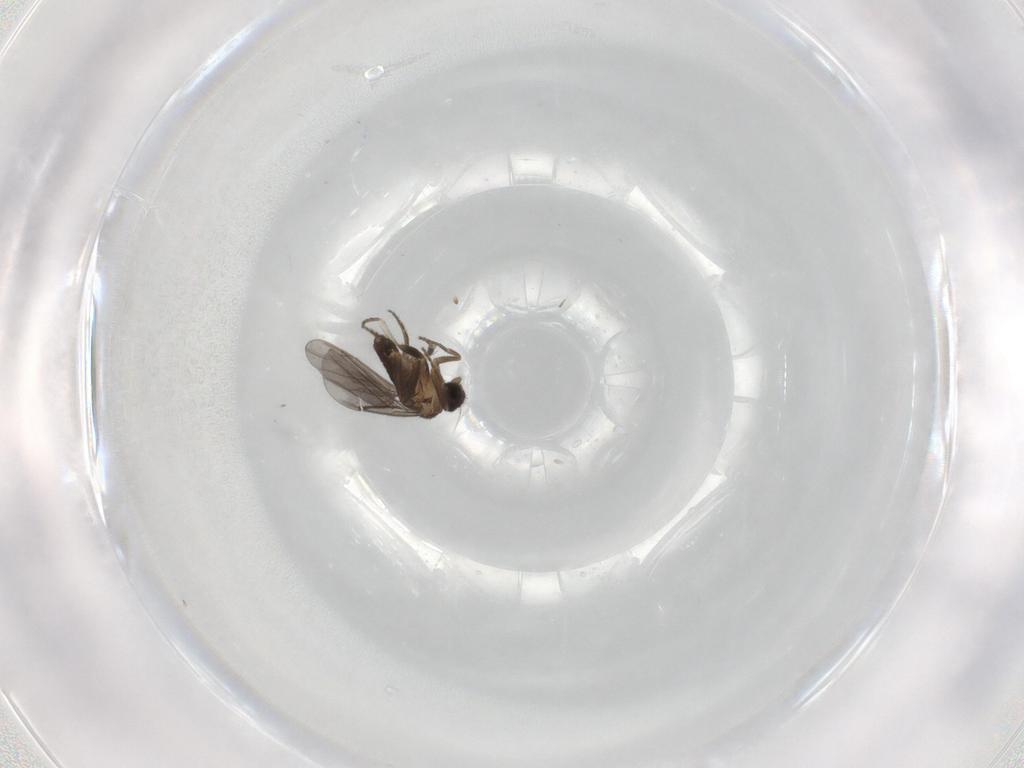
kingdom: Animalia
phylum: Arthropoda
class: Insecta
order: Diptera
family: Phoridae
